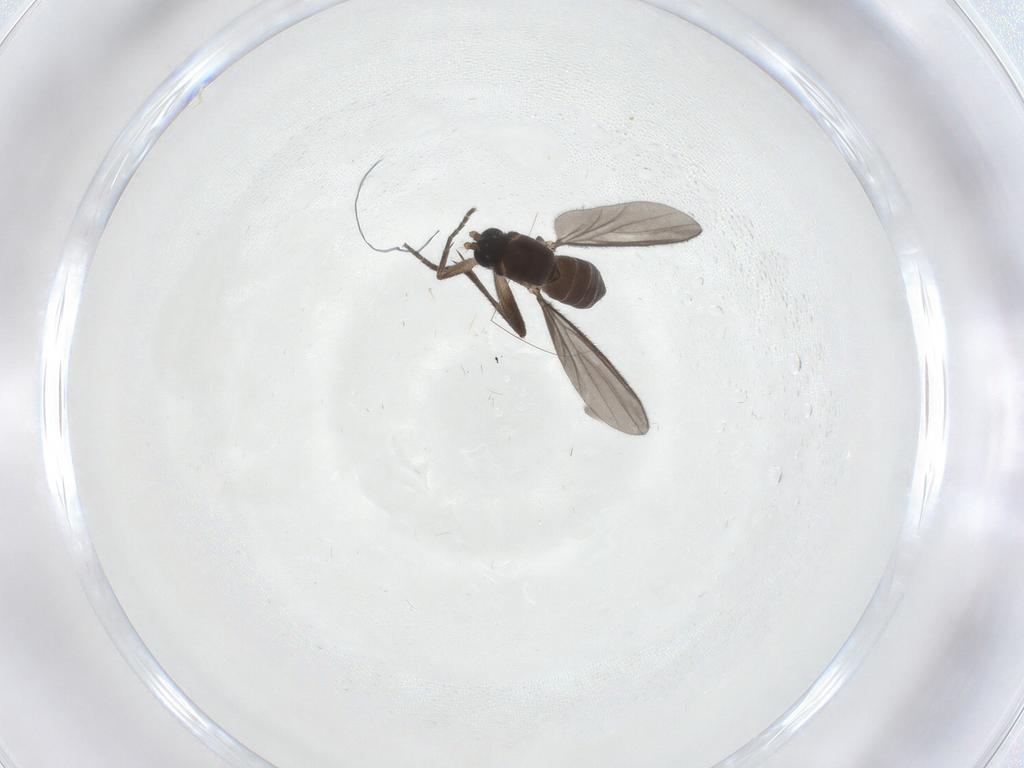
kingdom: Animalia
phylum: Arthropoda
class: Insecta
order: Diptera
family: Mycetophilidae
